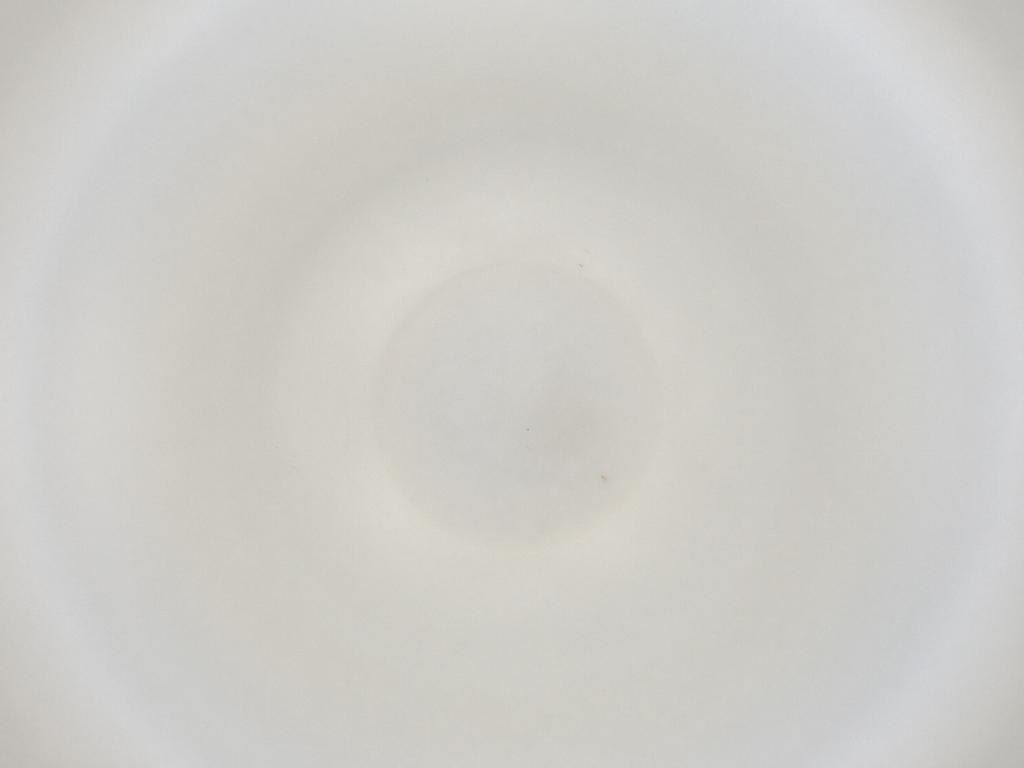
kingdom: Animalia
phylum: Arthropoda
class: Insecta
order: Diptera
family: Cecidomyiidae
